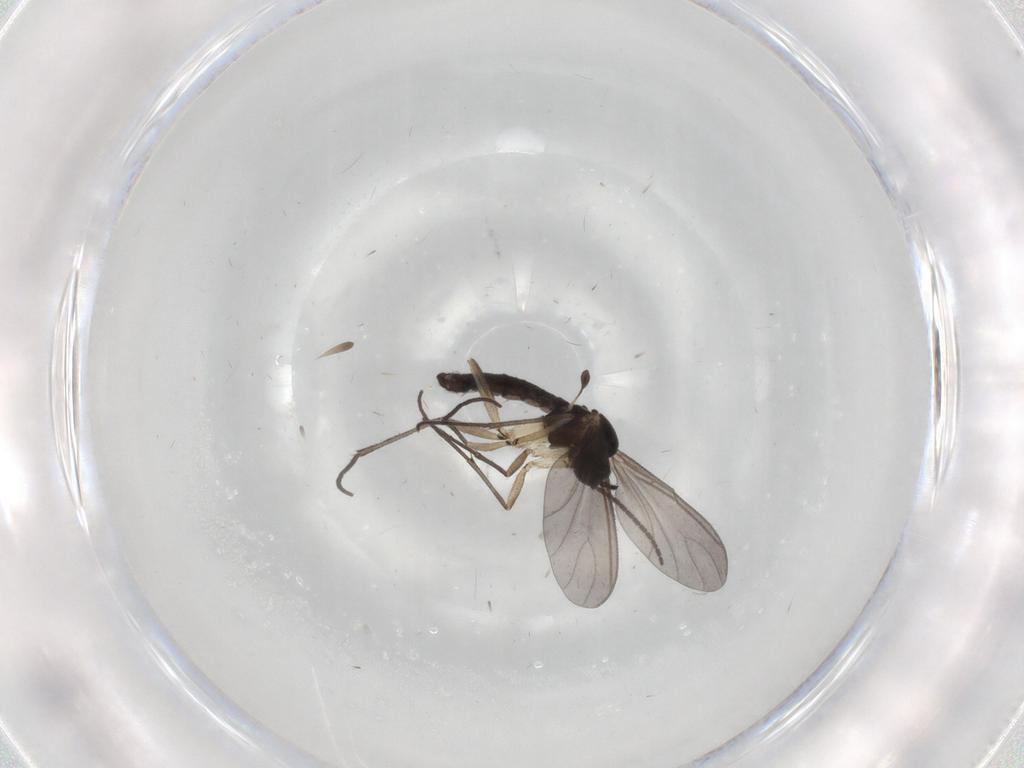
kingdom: Animalia
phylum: Arthropoda
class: Insecta
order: Diptera
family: Sciaridae
